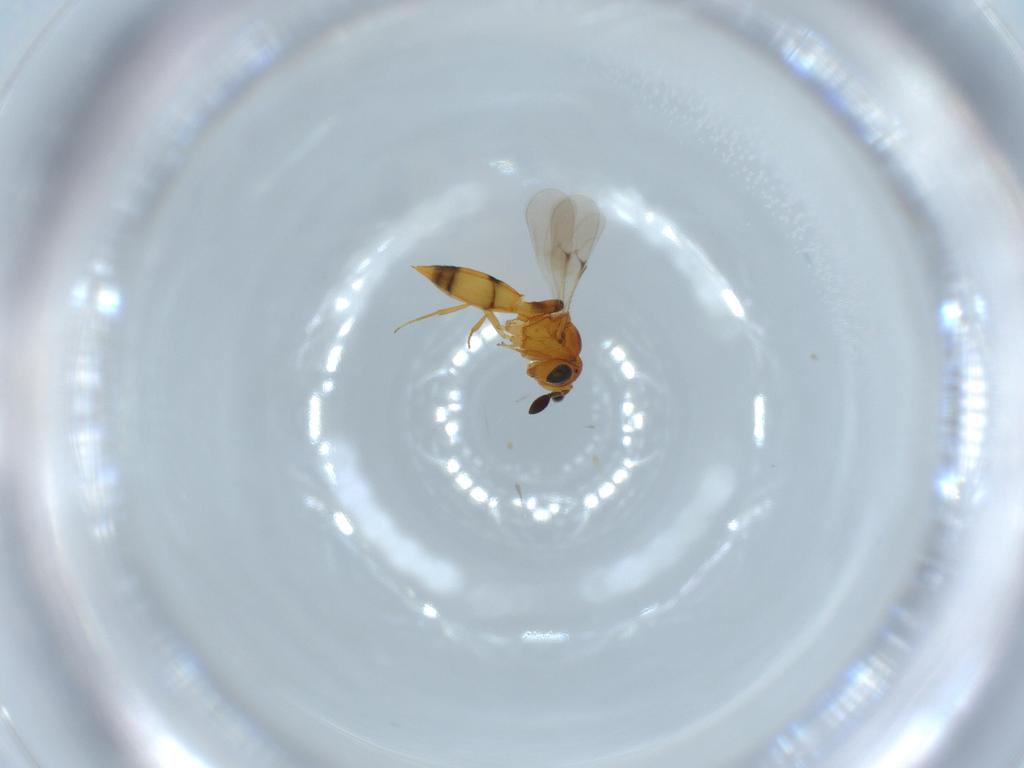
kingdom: Animalia
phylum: Arthropoda
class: Insecta
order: Hymenoptera
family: Scelionidae
